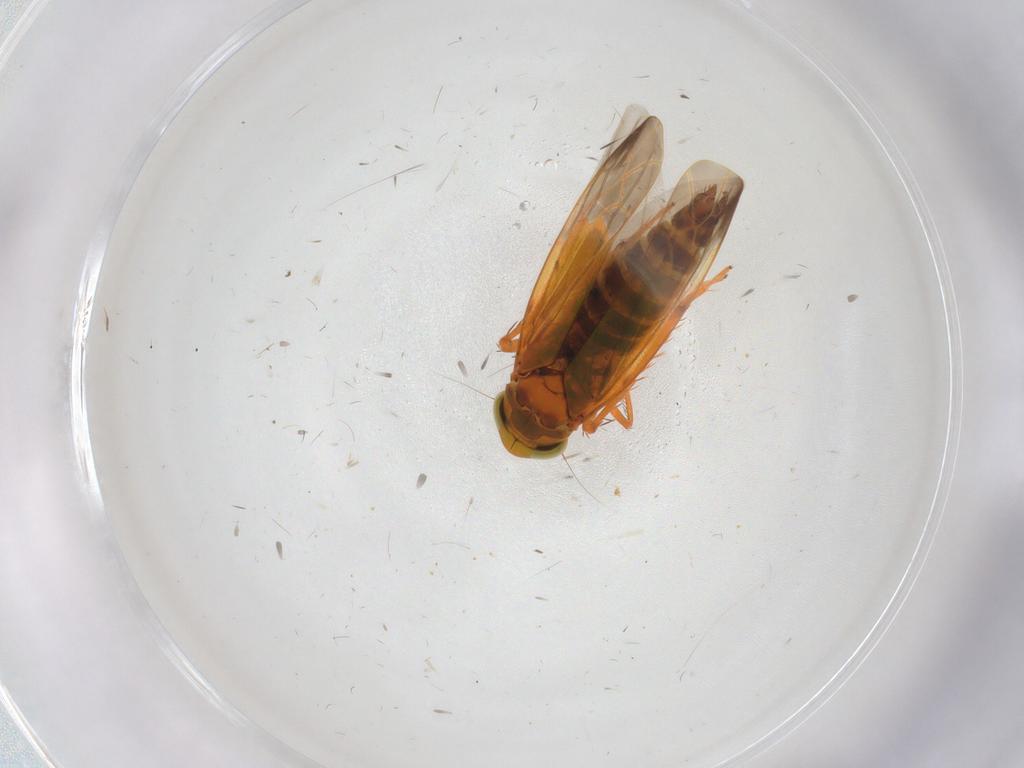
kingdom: Animalia
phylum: Arthropoda
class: Insecta
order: Hemiptera
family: Cicadellidae
